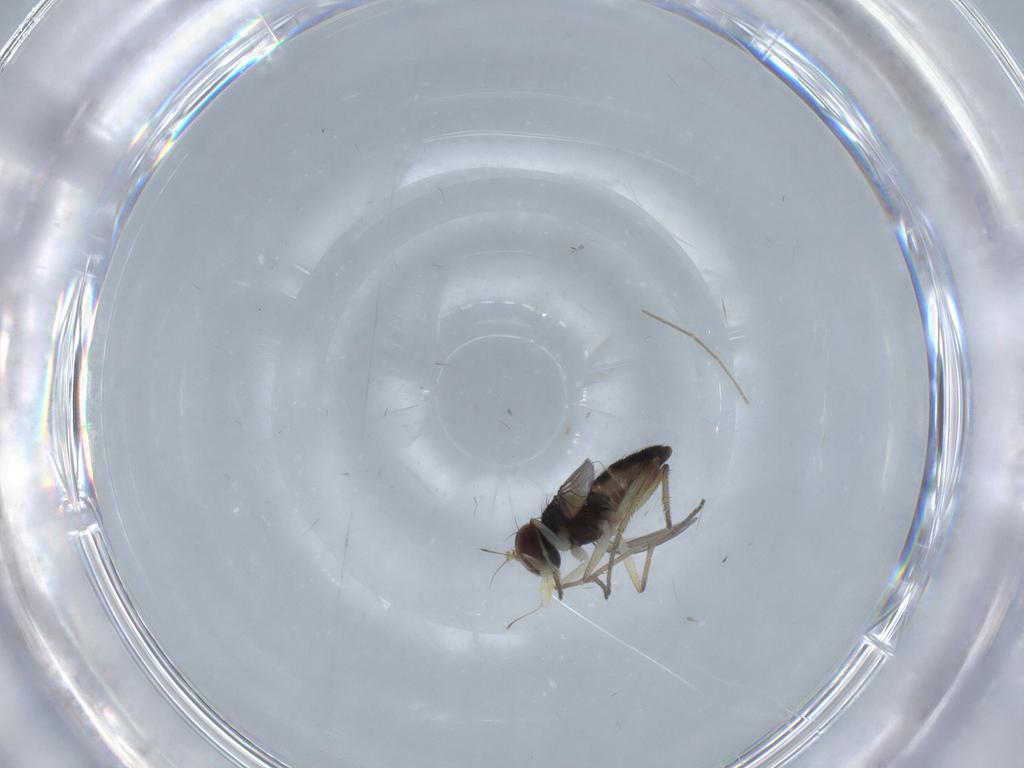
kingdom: Animalia
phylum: Arthropoda
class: Insecta
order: Diptera
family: Dolichopodidae
